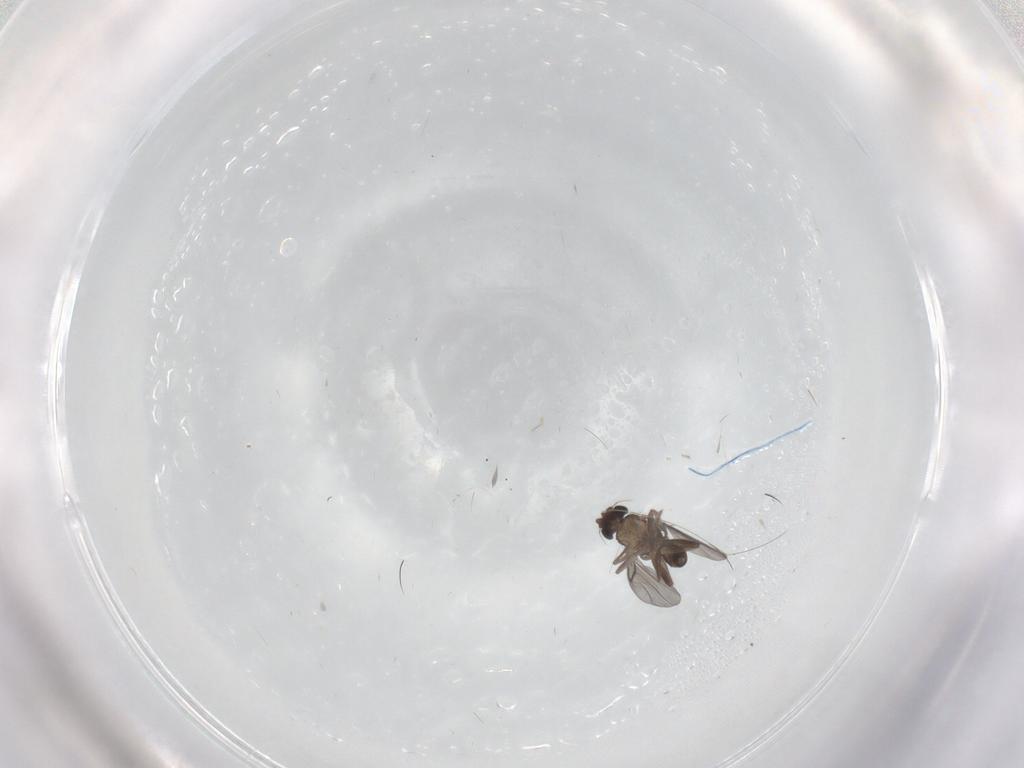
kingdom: Animalia
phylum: Arthropoda
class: Insecta
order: Diptera
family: Cecidomyiidae
